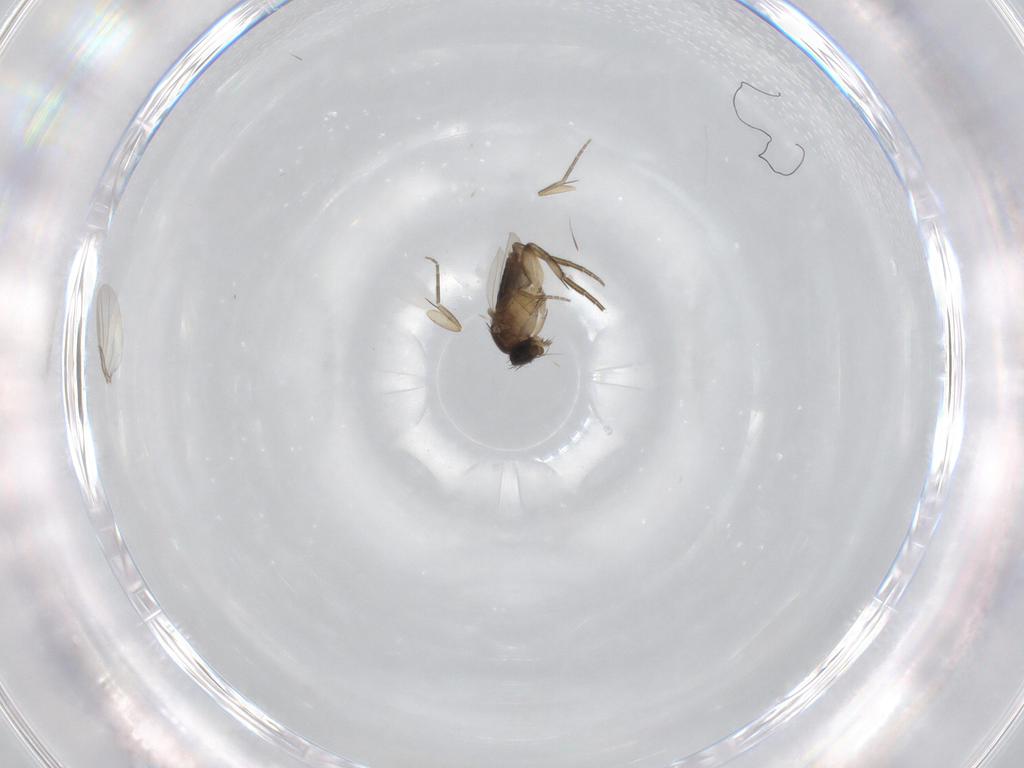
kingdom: Animalia
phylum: Arthropoda
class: Insecta
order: Diptera
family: Phoridae
